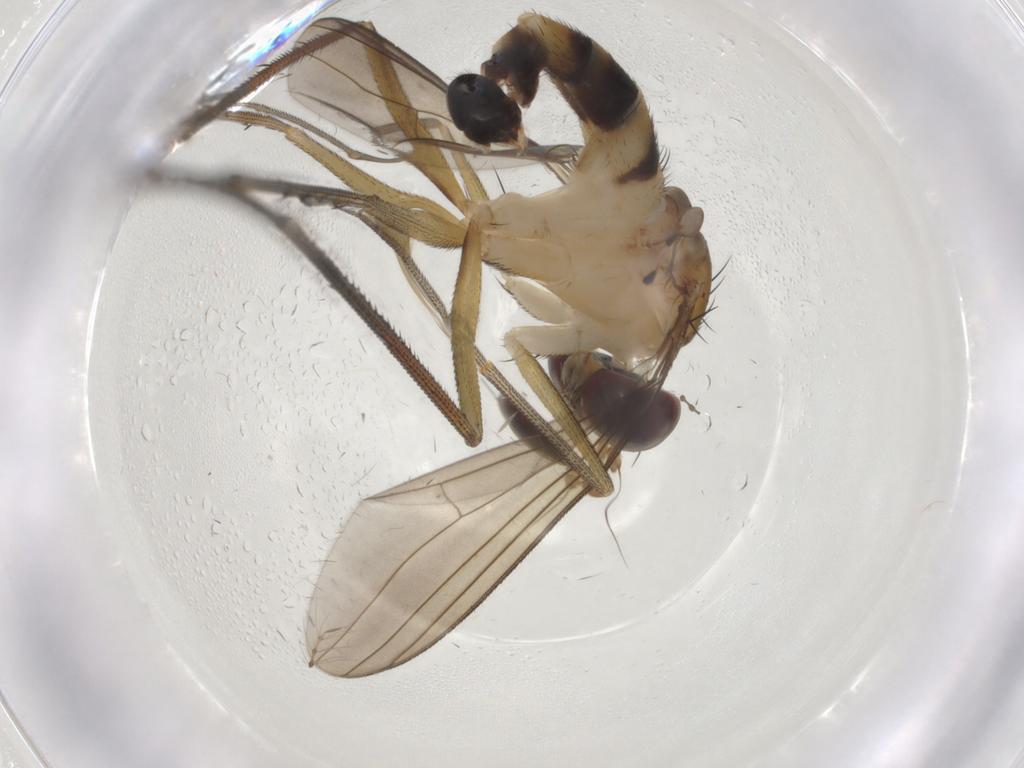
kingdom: Animalia
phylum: Arthropoda
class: Insecta
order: Diptera
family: Dolichopodidae
